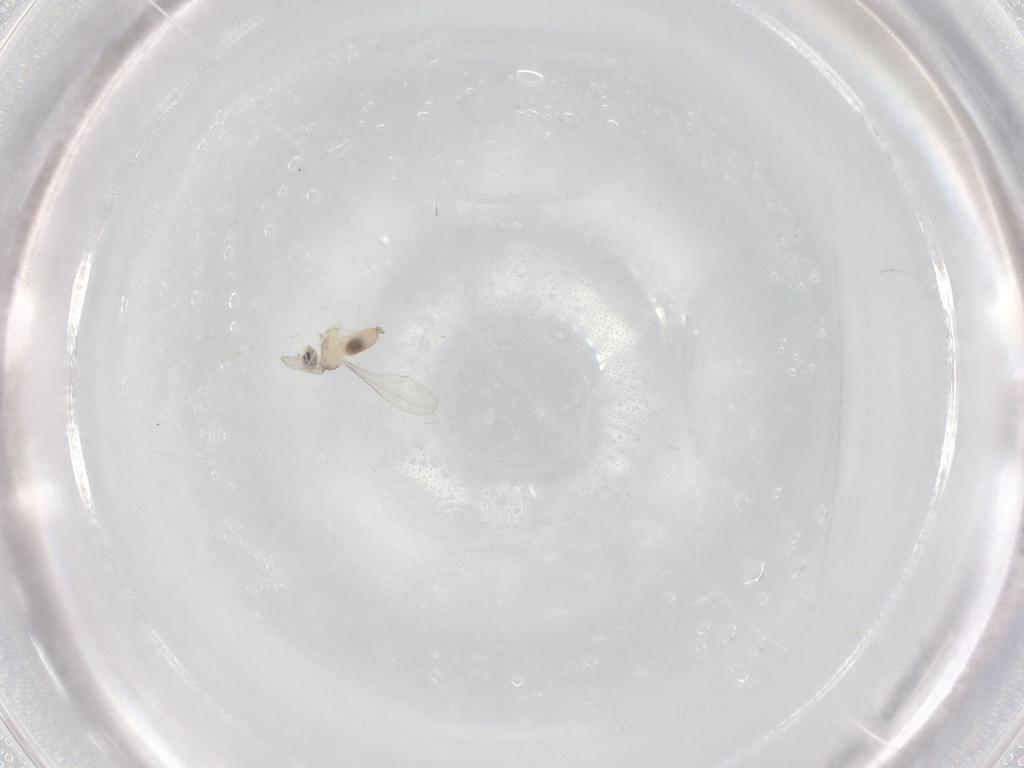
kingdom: Animalia
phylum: Arthropoda
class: Insecta
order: Diptera
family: Cecidomyiidae
